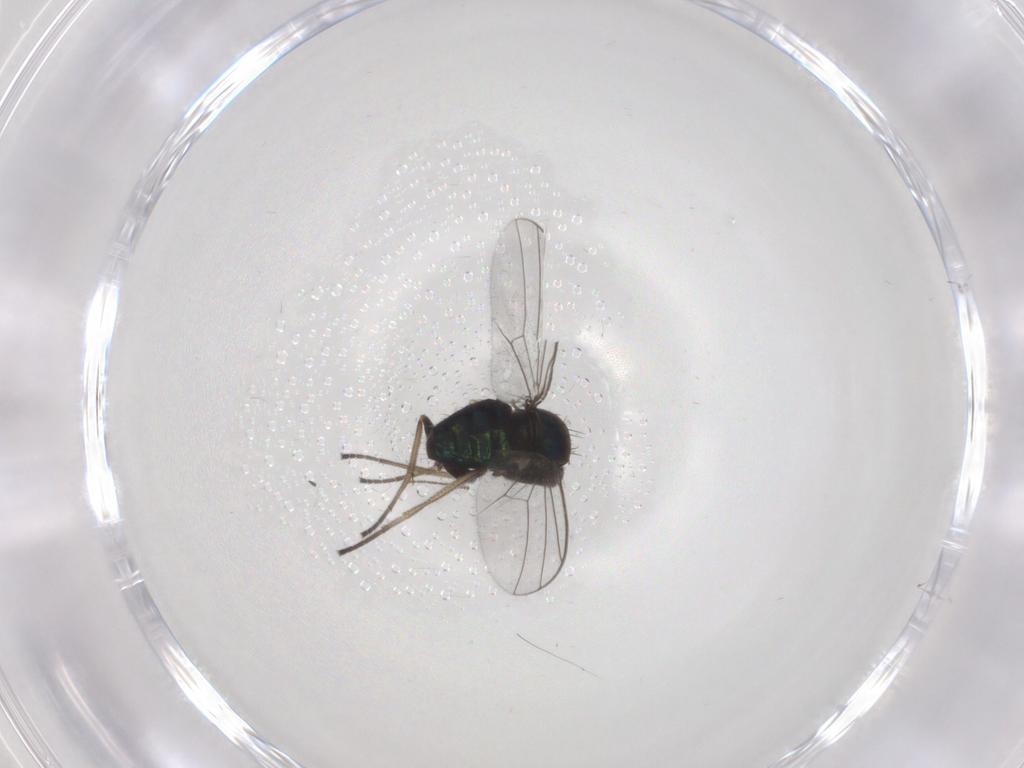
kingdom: Animalia
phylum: Arthropoda
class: Insecta
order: Diptera
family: Dolichopodidae
